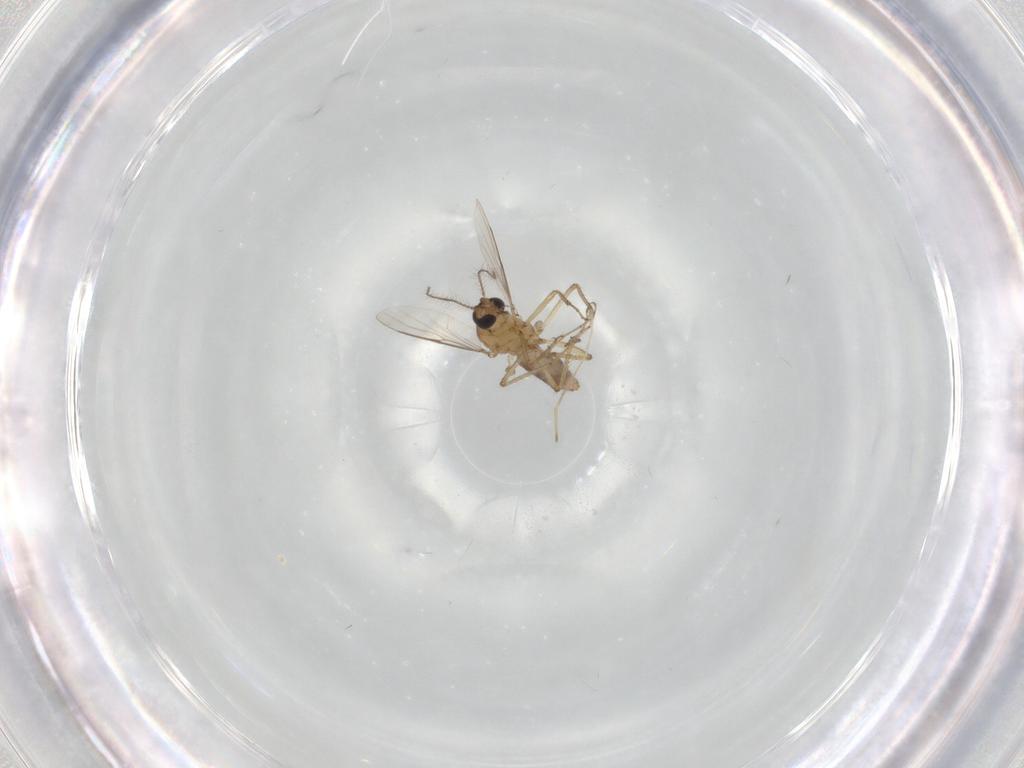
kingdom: Animalia
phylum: Arthropoda
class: Insecta
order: Diptera
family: Cecidomyiidae
